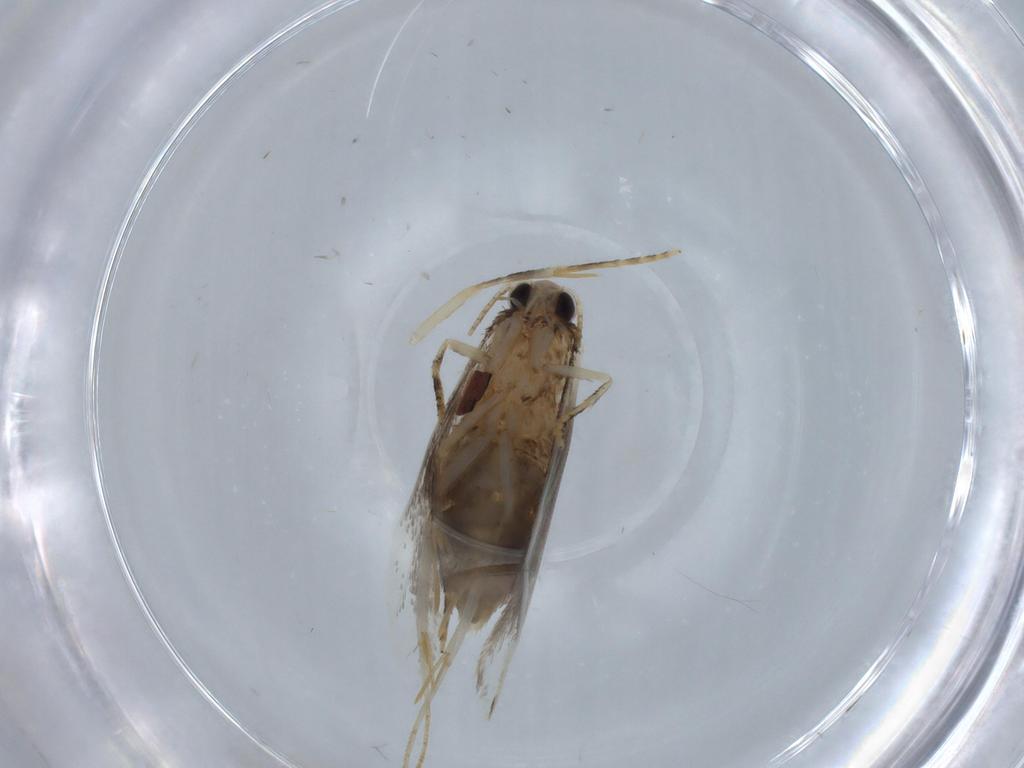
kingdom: Animalia
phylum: Arthropoda
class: Insecta
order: Lepidoptera
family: Tineidae
